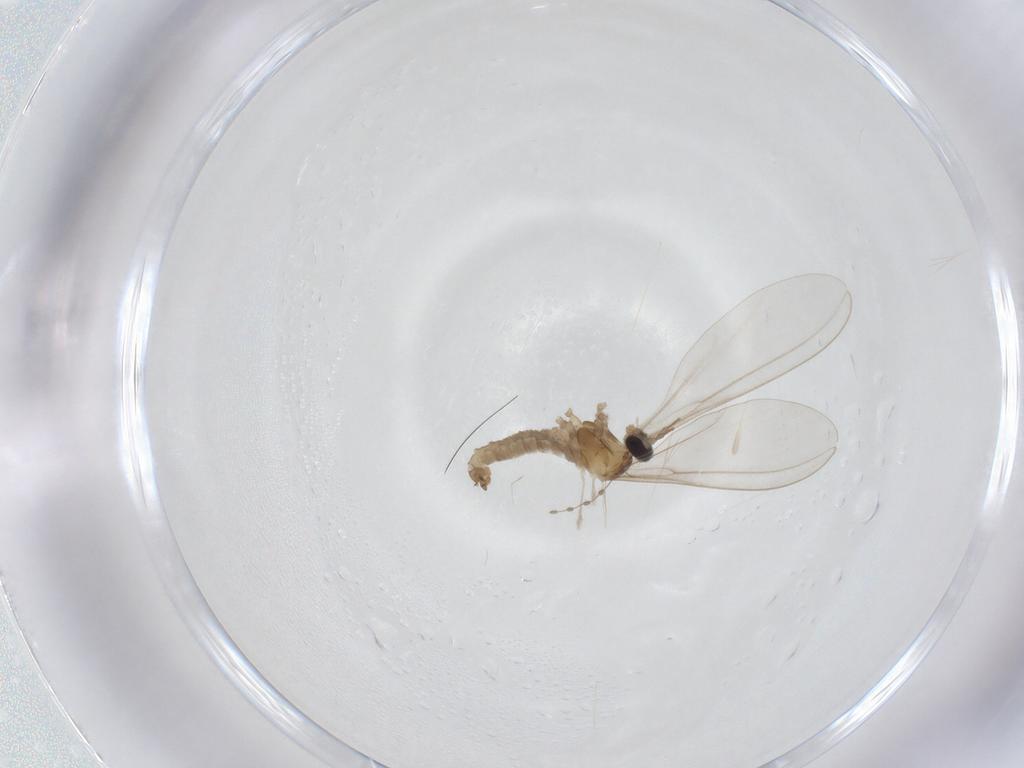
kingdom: Animalia
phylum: Arthropoda
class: Insecta
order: Diptera
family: Cecidomyiidae
